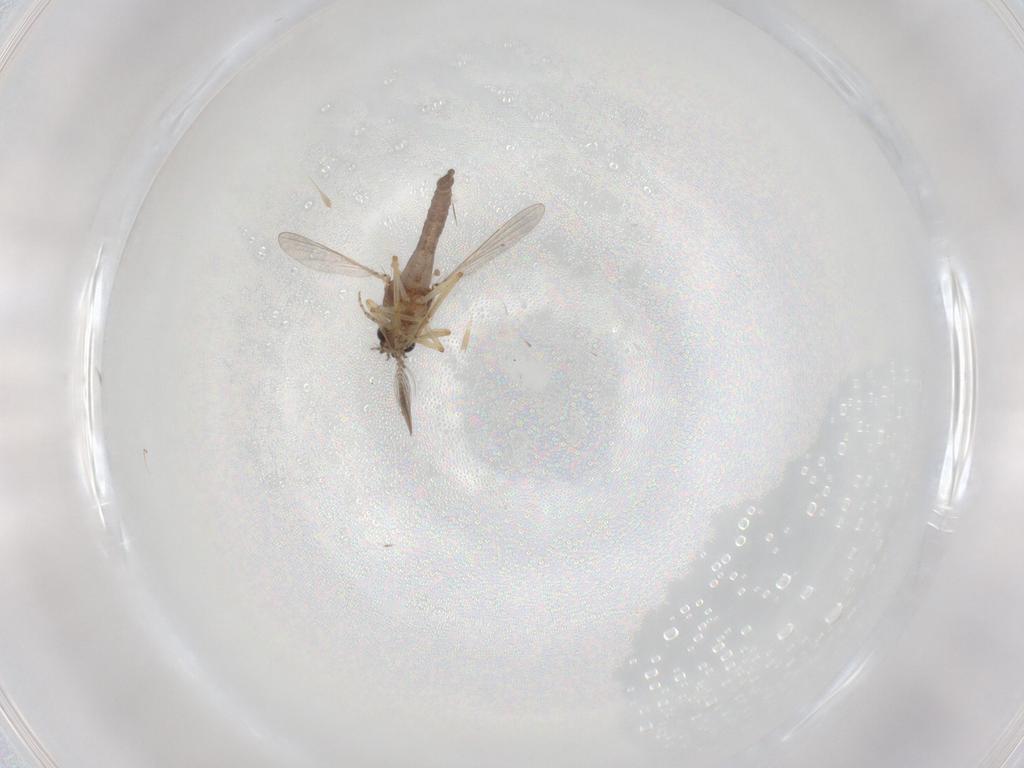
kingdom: Animalia
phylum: Arthropoda
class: Insecta
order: Diptera
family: Ceratopogonidae
